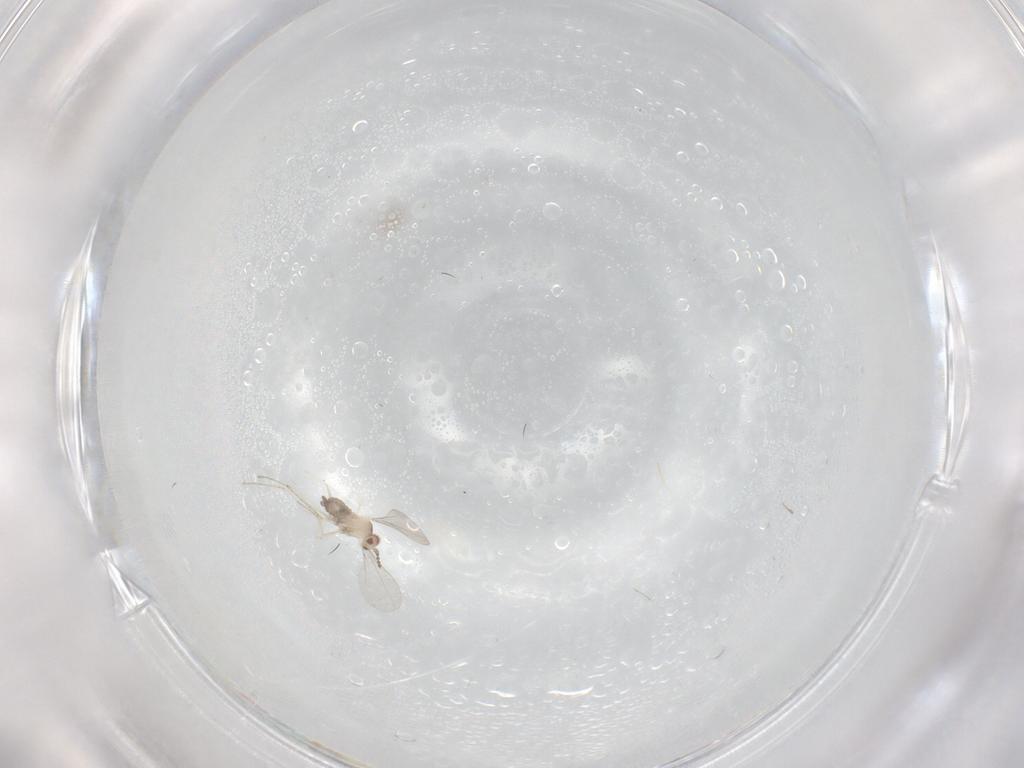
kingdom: Animalia
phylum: Arthropoda
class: Insecta
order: Diptera
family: Cecidomyiidae
